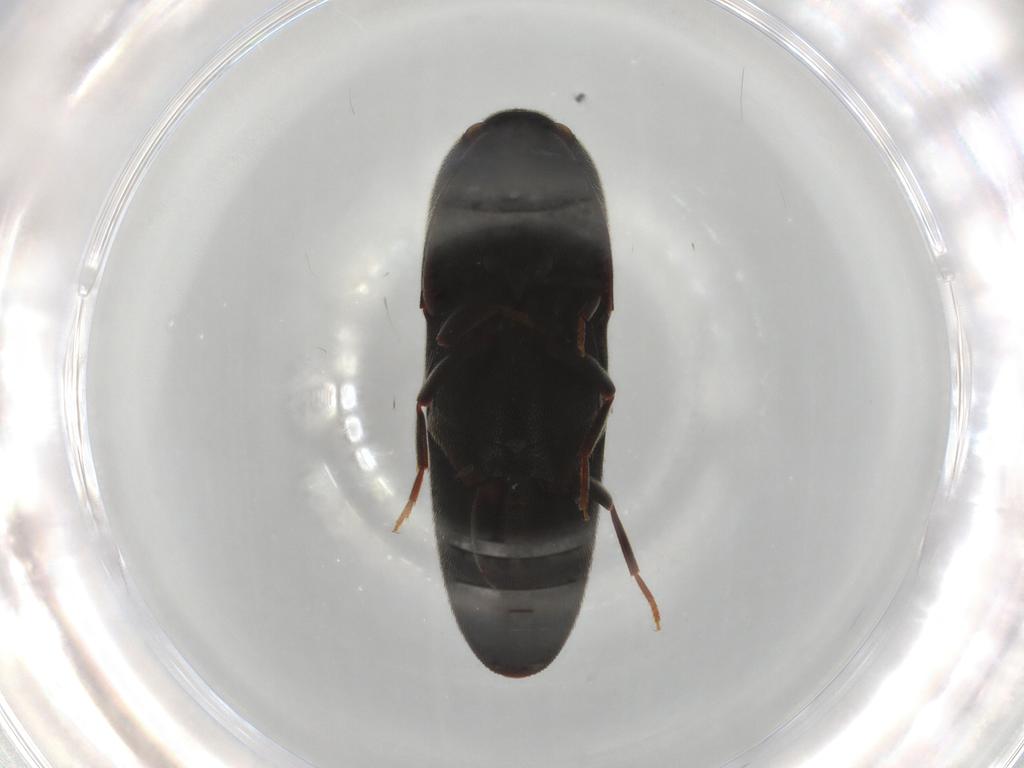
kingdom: Animalia
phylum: Arthropoda
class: Insecta
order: Coleoptera
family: Eucnemidae
